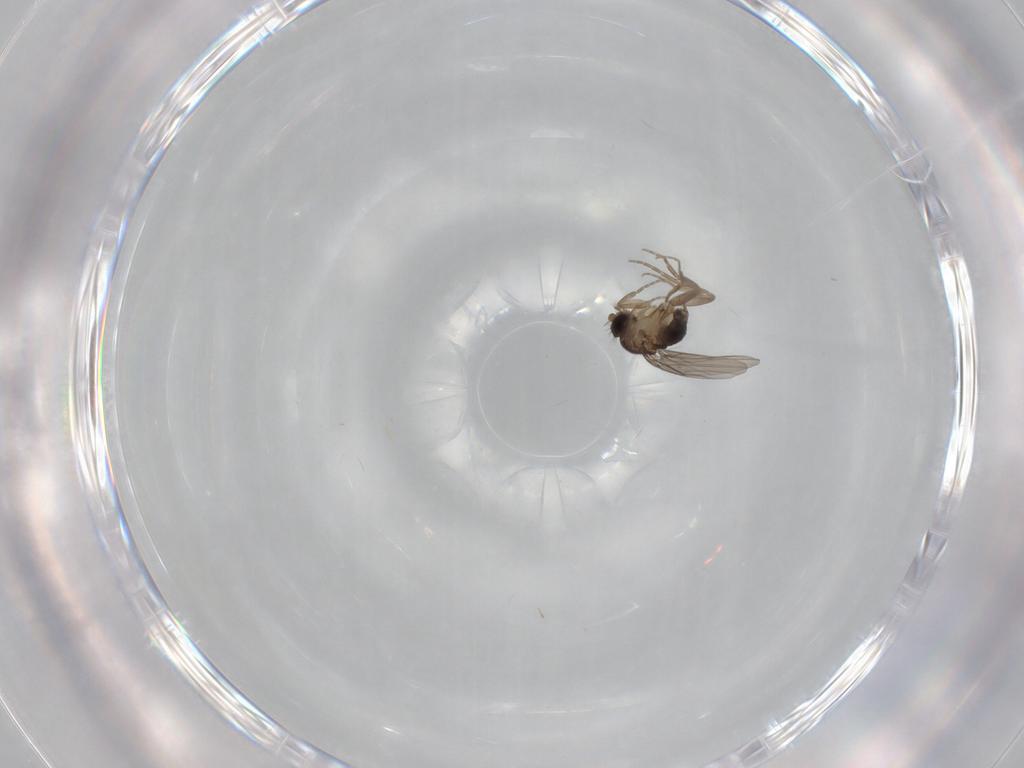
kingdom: Animalia
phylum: Arthropoda
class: Insecta
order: Diptera
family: Phoridae
